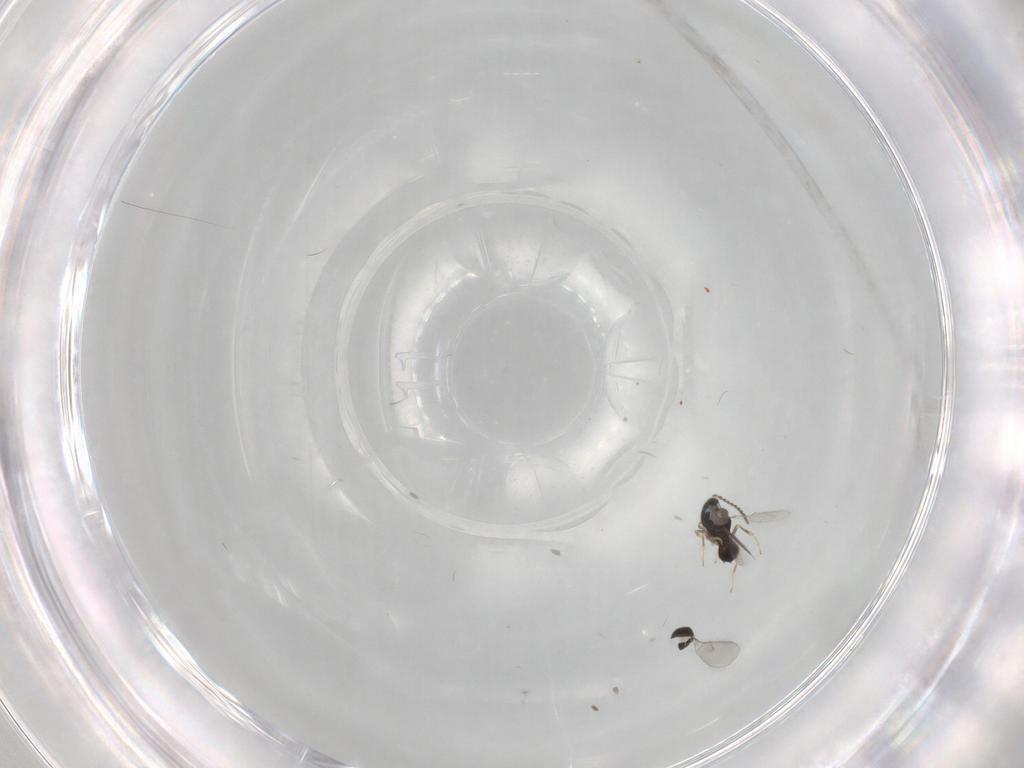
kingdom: Animalia
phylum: Arthropoda
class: Insecta
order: Hymenoptera
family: Scelionidae
